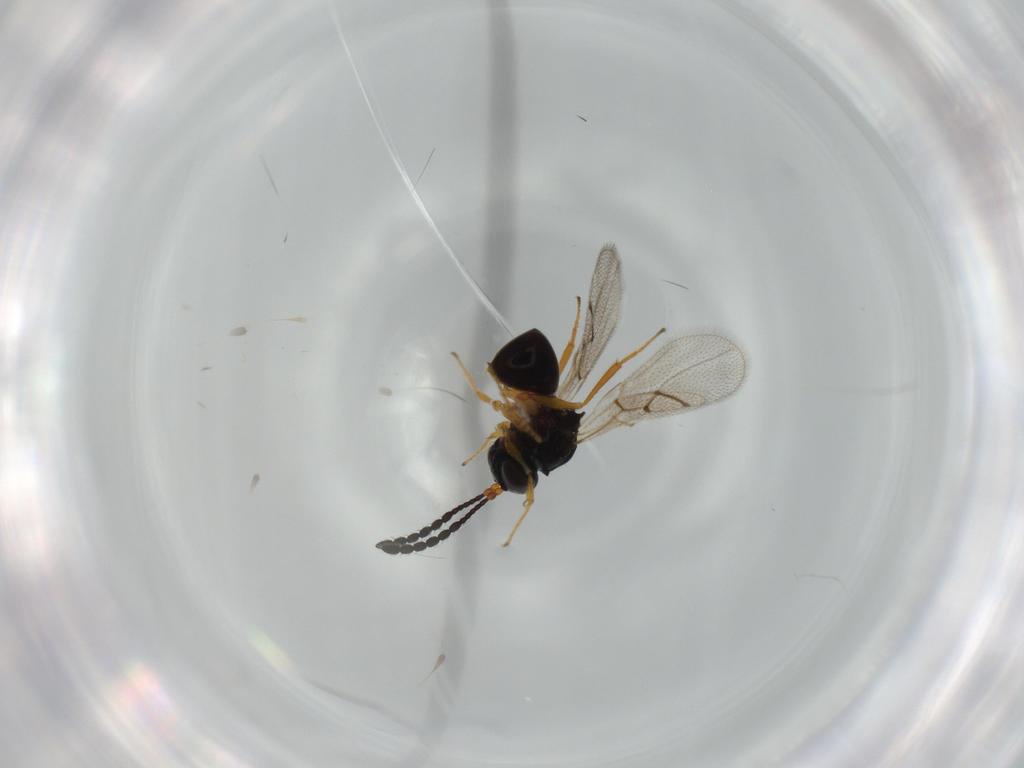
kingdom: Animalia
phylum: Arthropoda
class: Insecta
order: Hymenoptera
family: Figitidae
